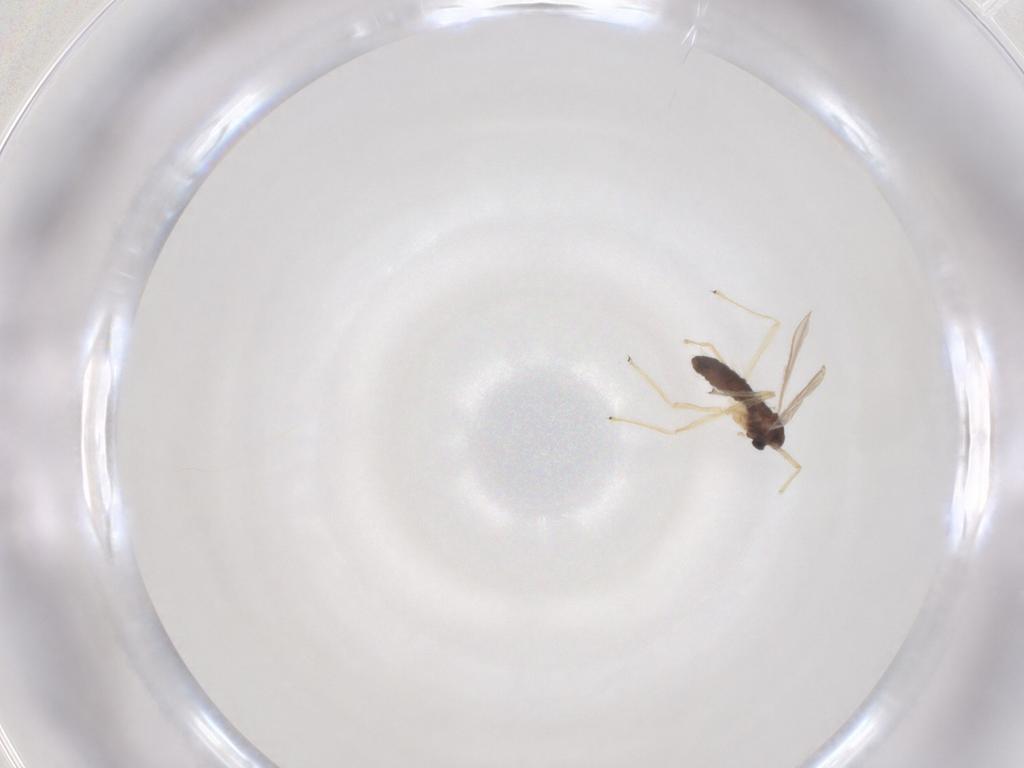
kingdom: Animalia
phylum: Arthropoda
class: Insecta
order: Diptera
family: Chironomidae
